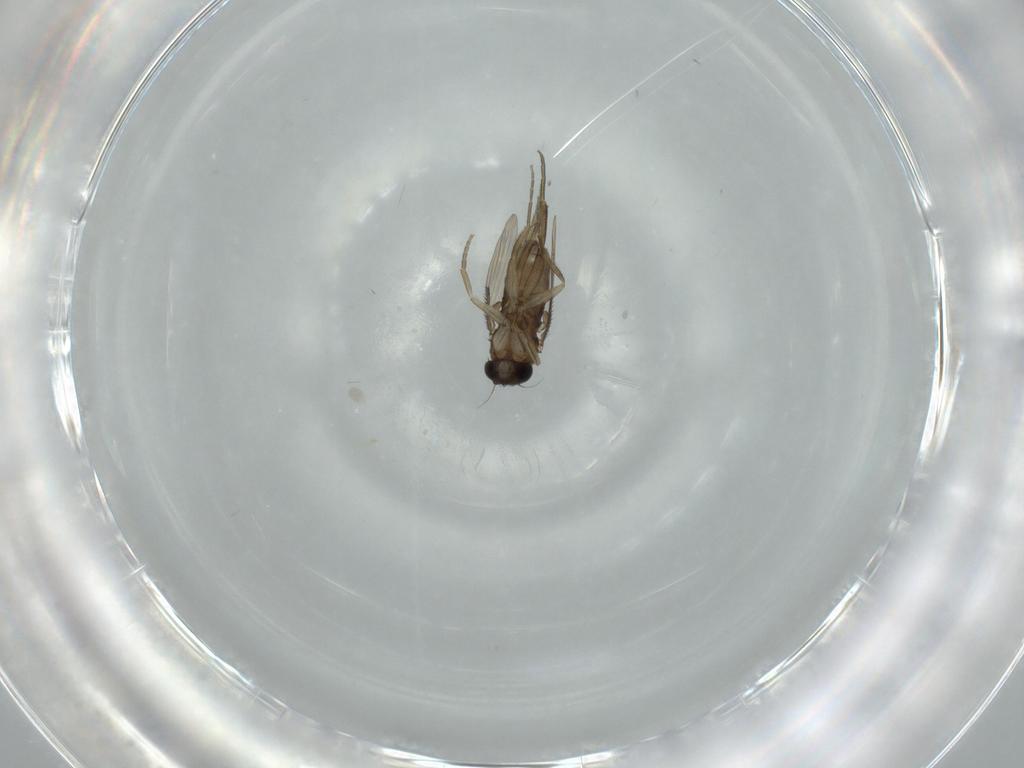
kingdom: Animalia
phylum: Arthropoda
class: Insecta
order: Diptera
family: Phoridae
